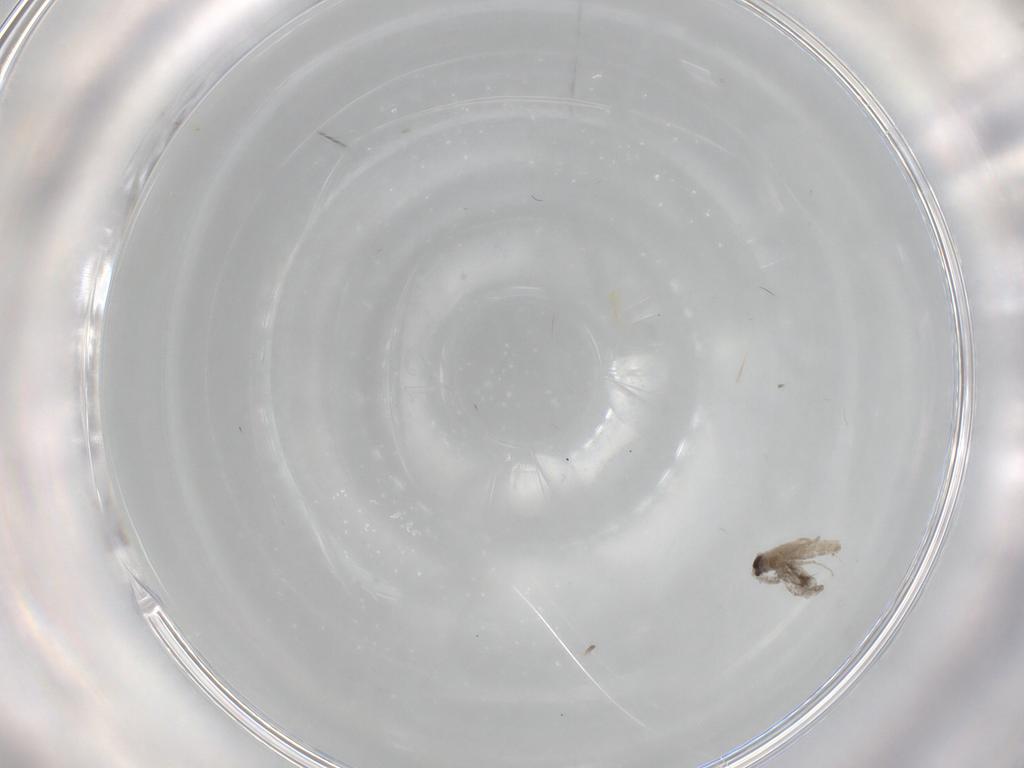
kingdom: Animalia
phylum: Arthropoda
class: Insecta
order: Diptera
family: Cecidomyiidae
